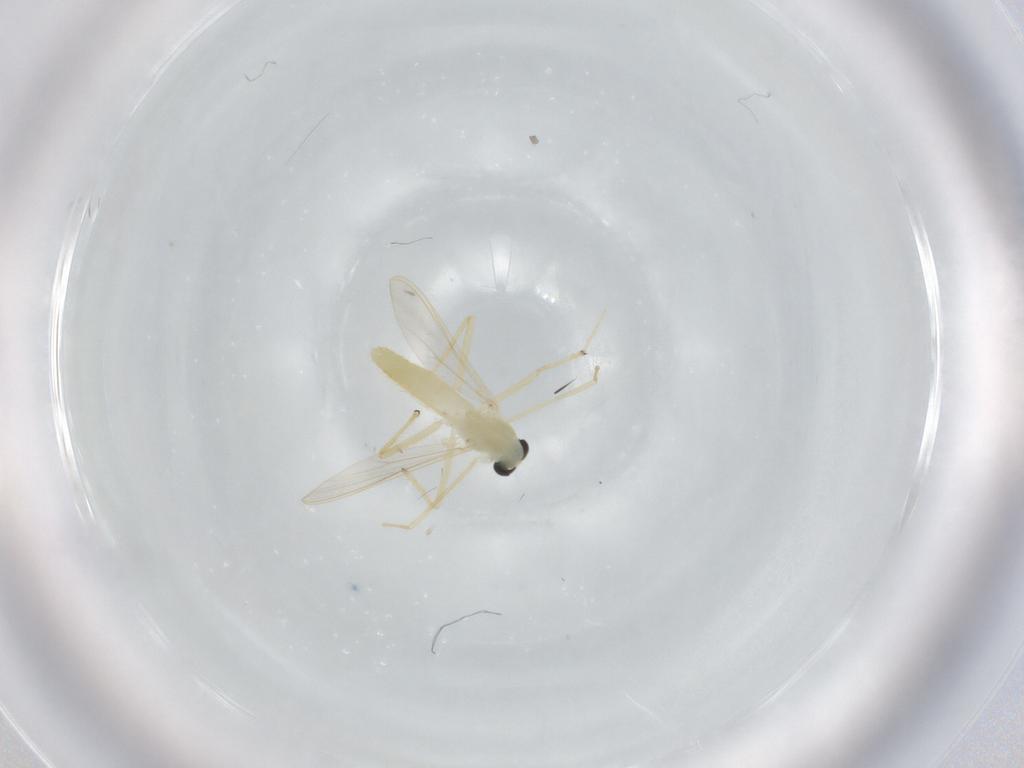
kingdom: Animalia
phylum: Arthropoda
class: Insecta
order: Diptera
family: Chironomidae
